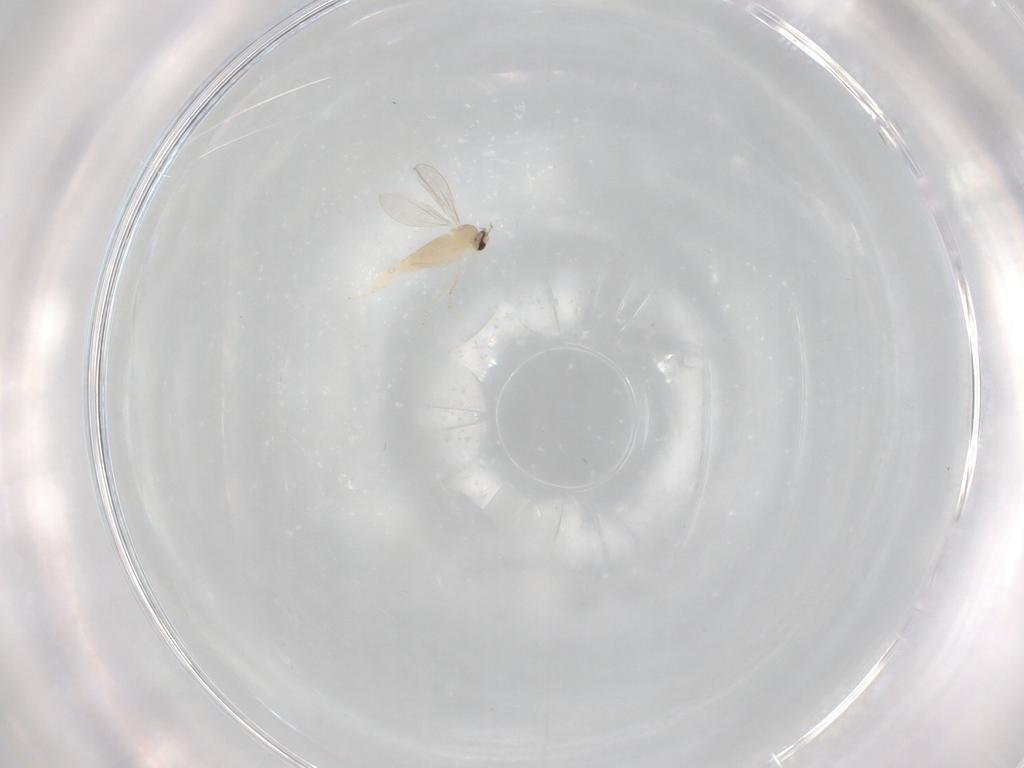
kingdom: Animalia
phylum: Arthropoda
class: Insecta
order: Diptera
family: Cecidomyiidae
